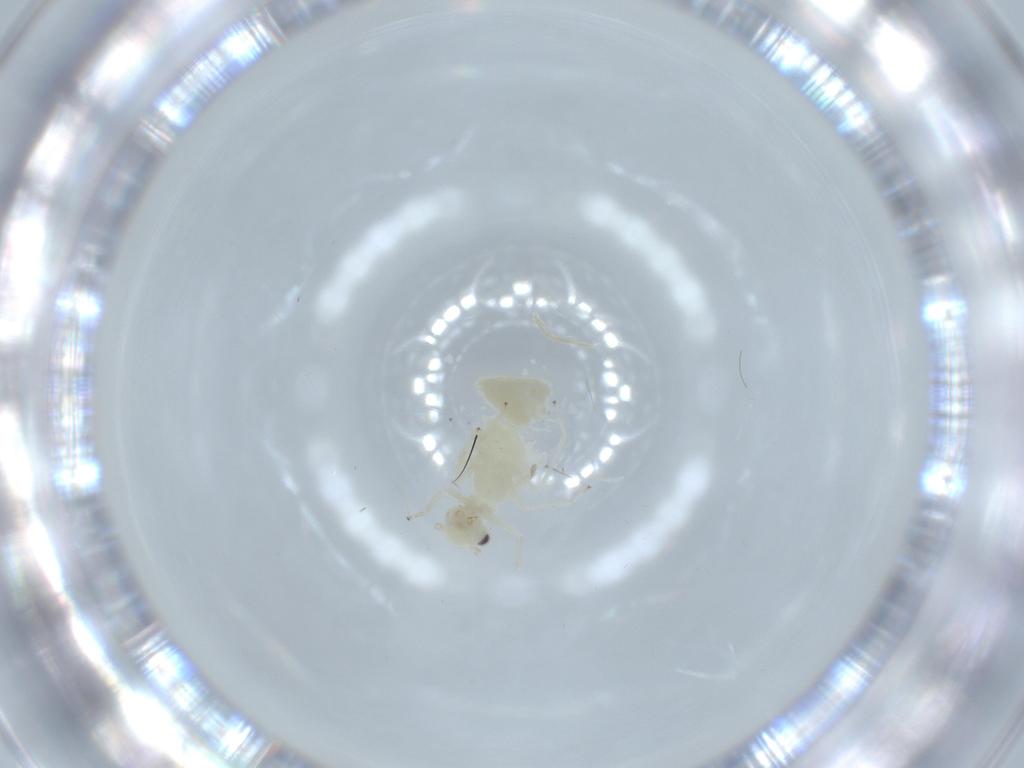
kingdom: Animalia
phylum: Arthropoda
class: Insecta
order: Psocodea
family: Caeciliusidae
